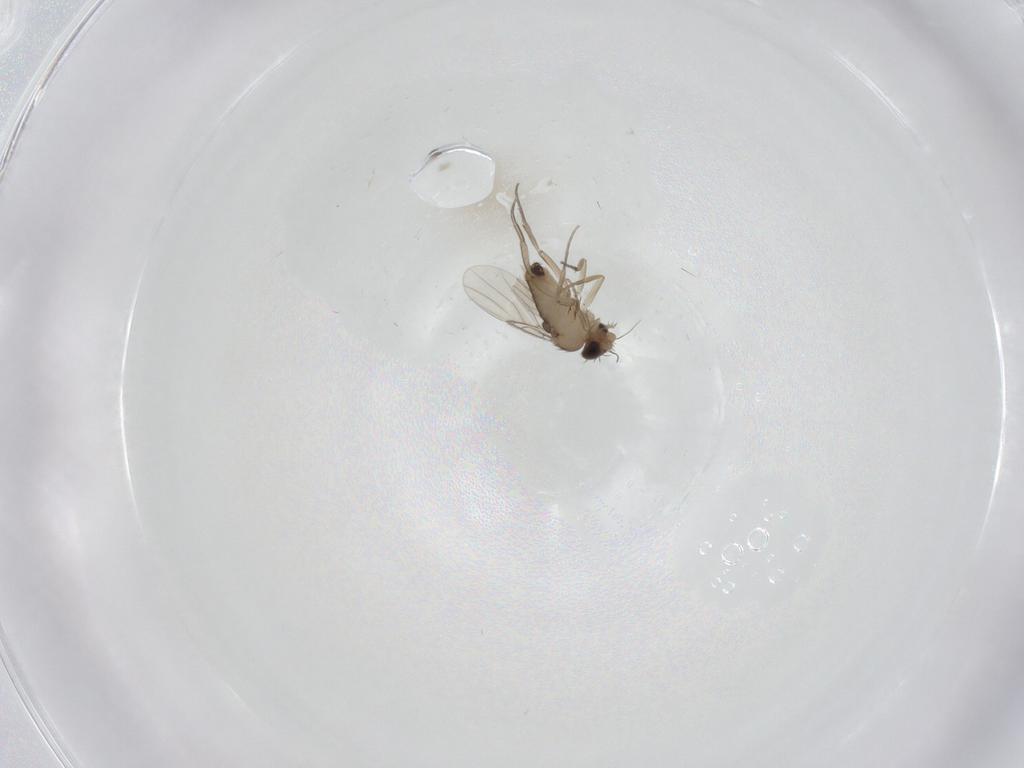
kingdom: Animalia
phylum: Arthropoda
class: Insecta
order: Diptera
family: Phoridae
